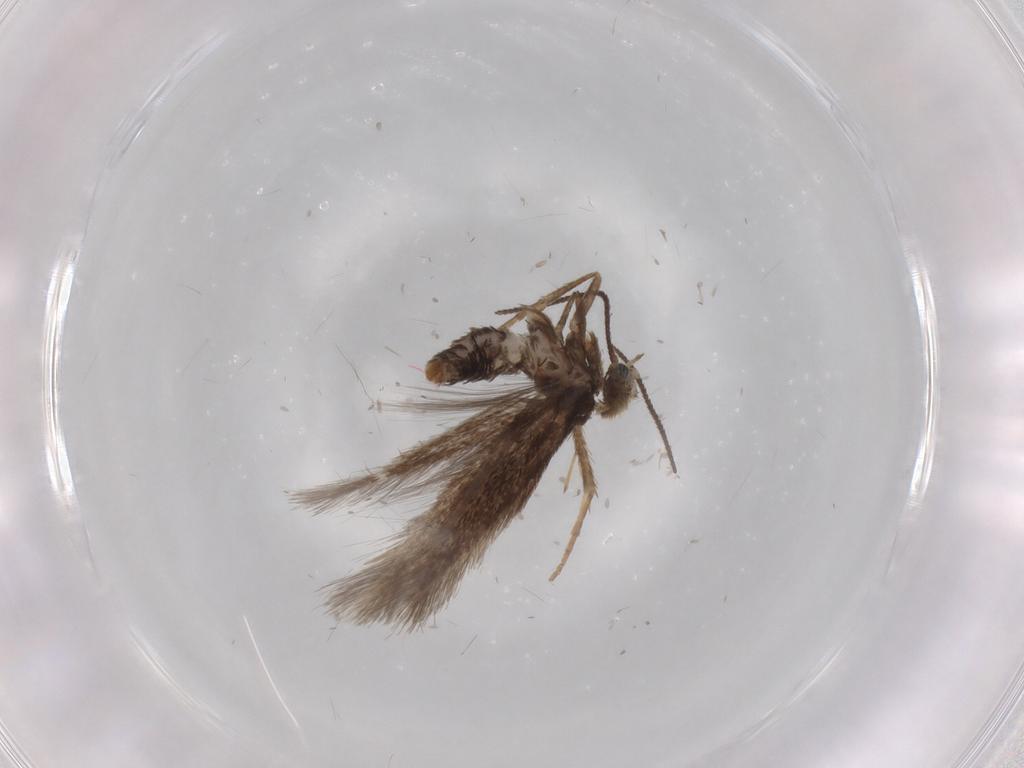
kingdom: Animalia
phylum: Arthropoda
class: Insecta
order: Lepidoptera
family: Nepticulidae
